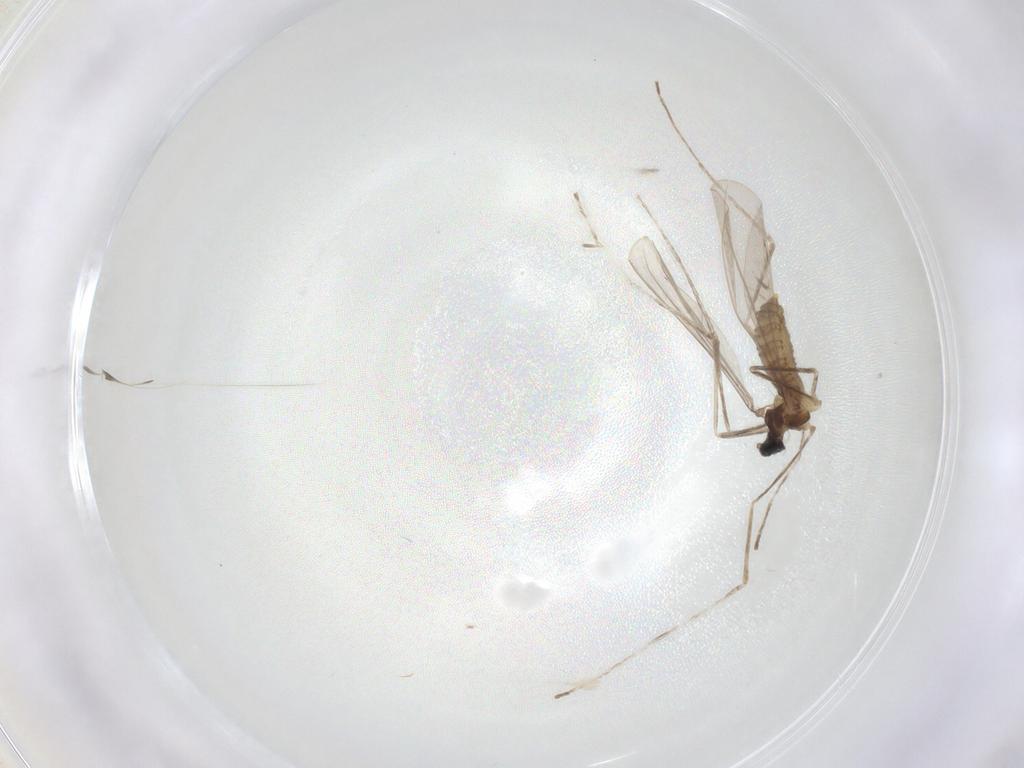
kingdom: Animalia
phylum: Arthropoda
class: Insecta
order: Diptera
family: Cecidomyiidae
